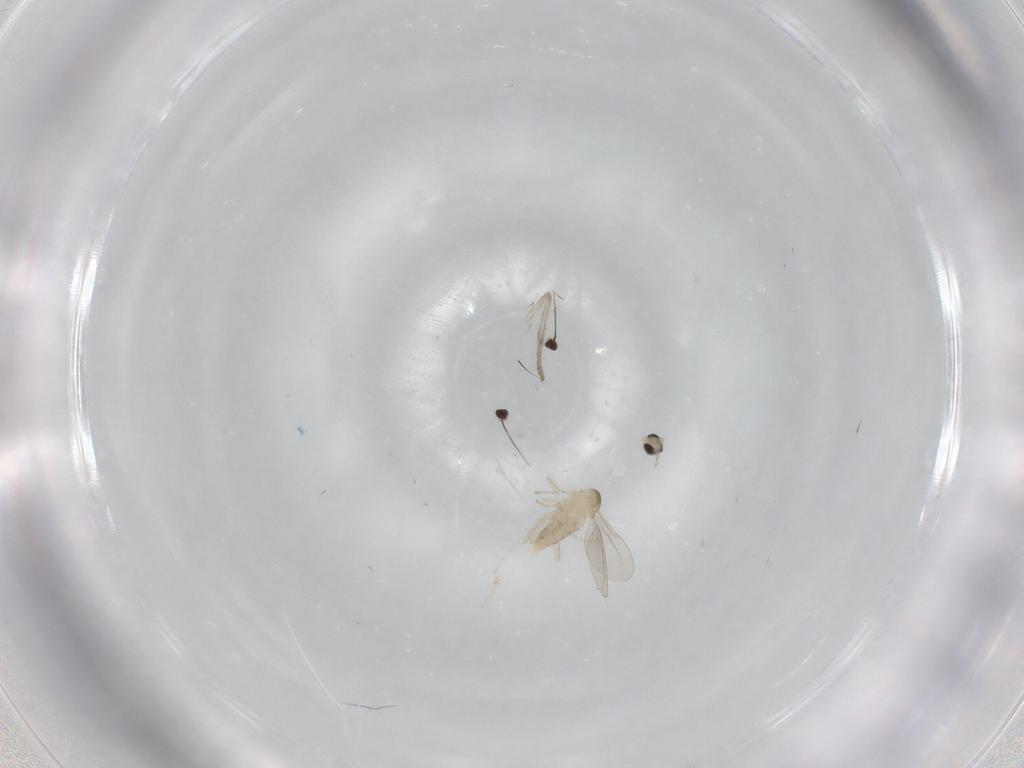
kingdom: Animalia
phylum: Arthropoda
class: Insecta
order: Diptera
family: Cecidomyiidae
